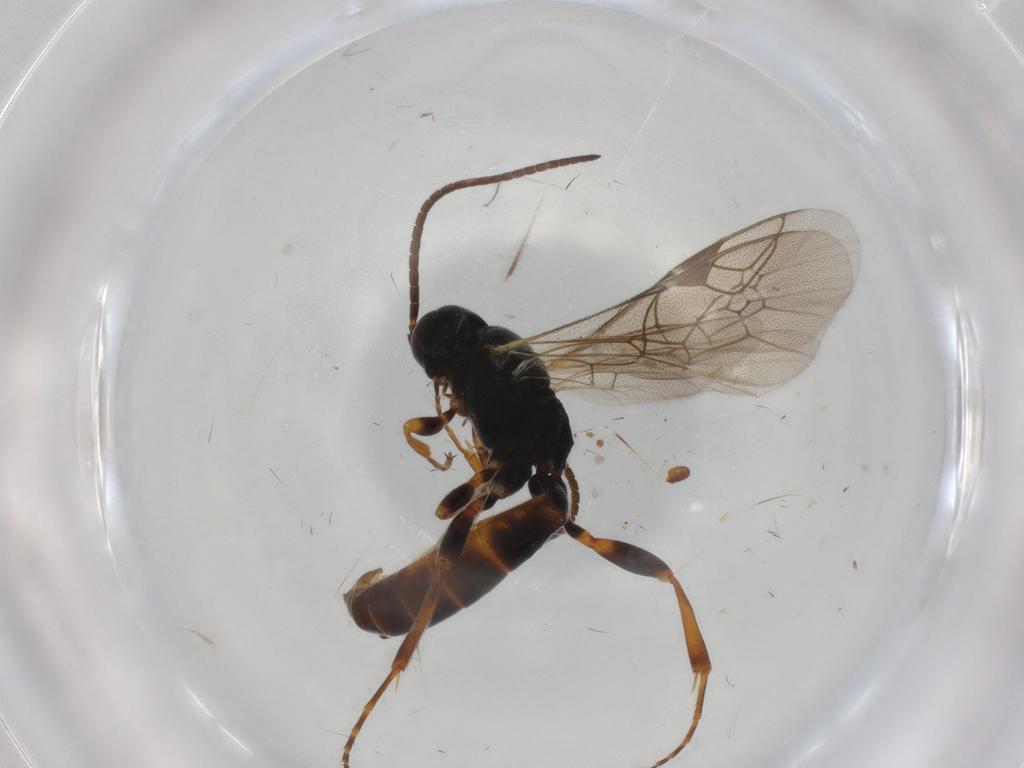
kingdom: Animalia
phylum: Arthropoda
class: Insecta
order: Hymenoptera
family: Ichneumonidae
